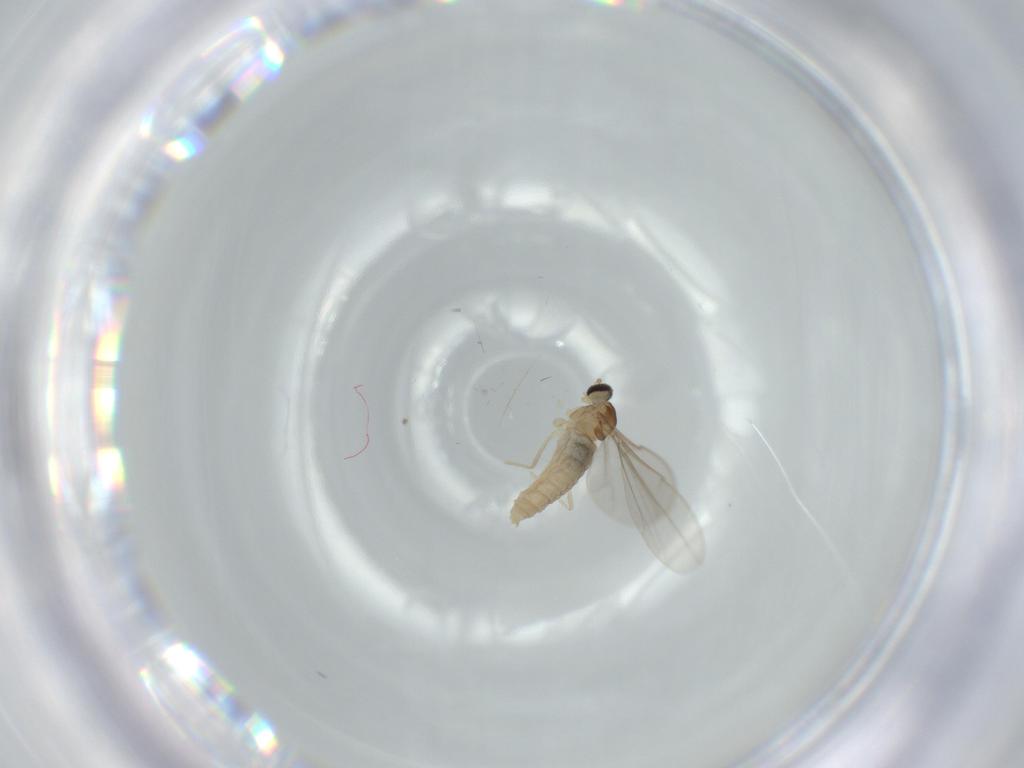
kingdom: Animalia
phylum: Arthropoda
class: Insecta
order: Diptera
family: Cecidomyiidae
